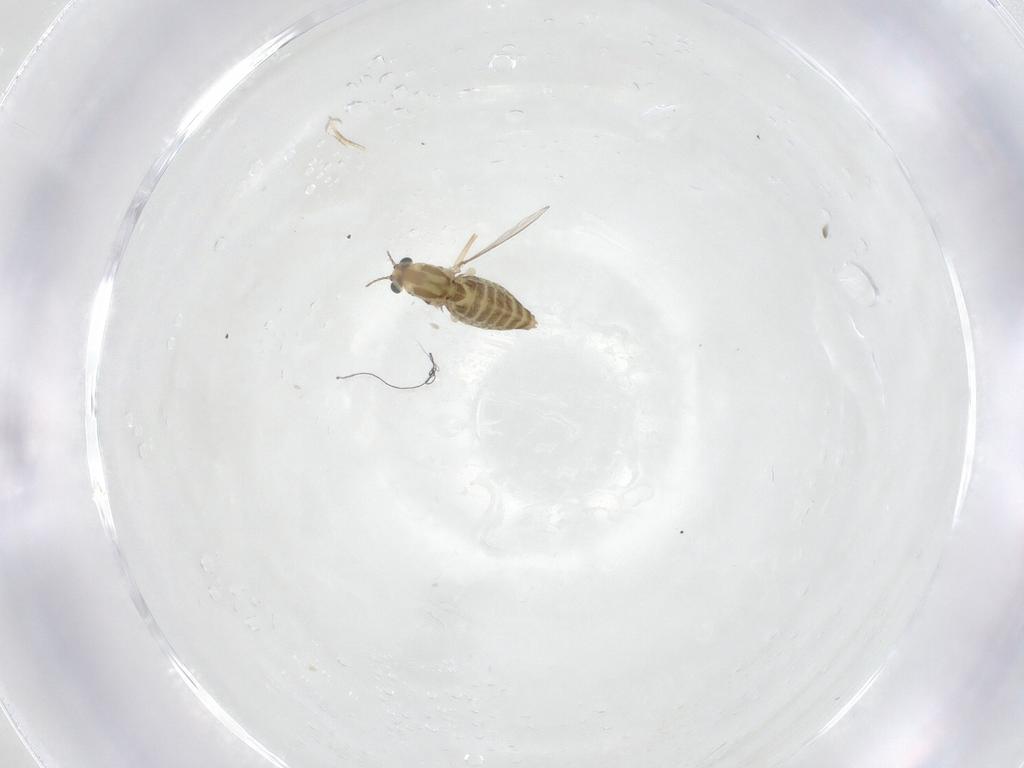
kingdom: Animalia
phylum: Arthropoda
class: Insecta
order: Diptera
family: Chironomidae
